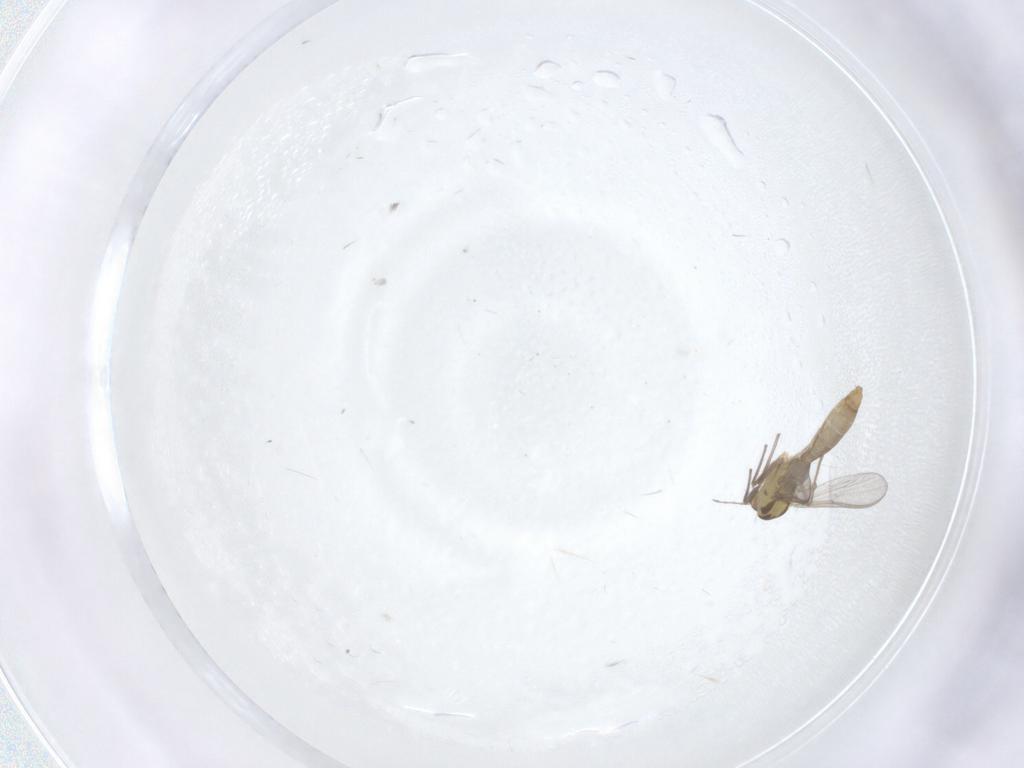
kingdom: Animalia
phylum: Arthropoda
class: Insecta
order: Diptera
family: Chironomidae
